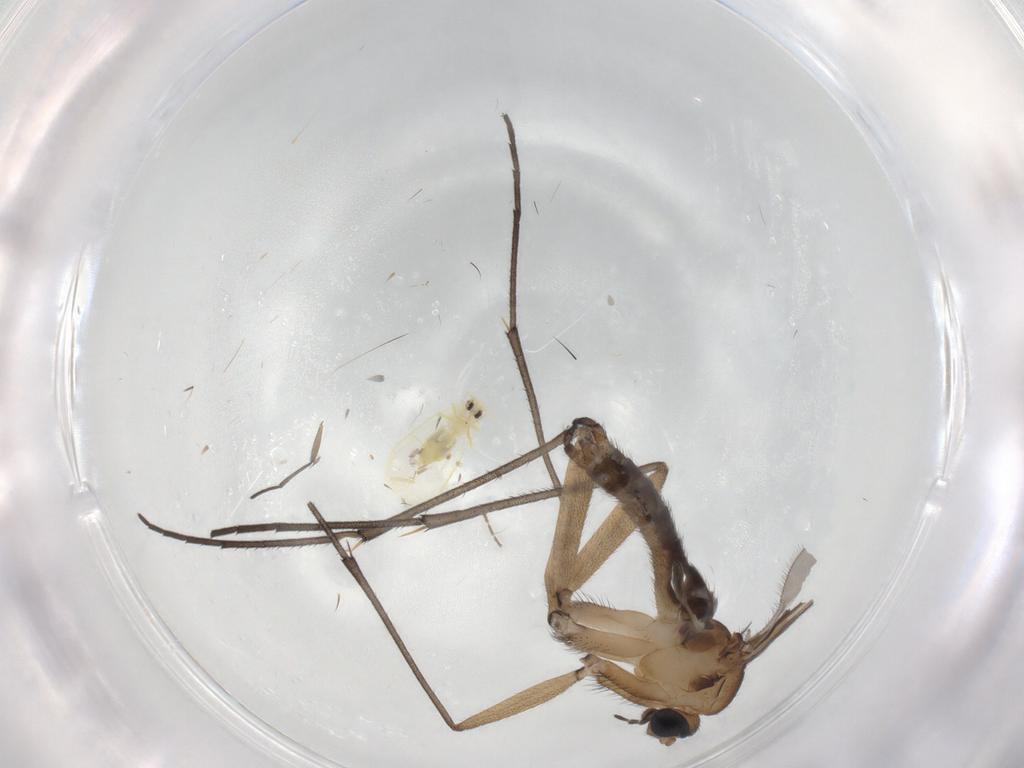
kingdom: Animalia
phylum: Arthropoda
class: Insecta
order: Diptera
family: Sciaridae
